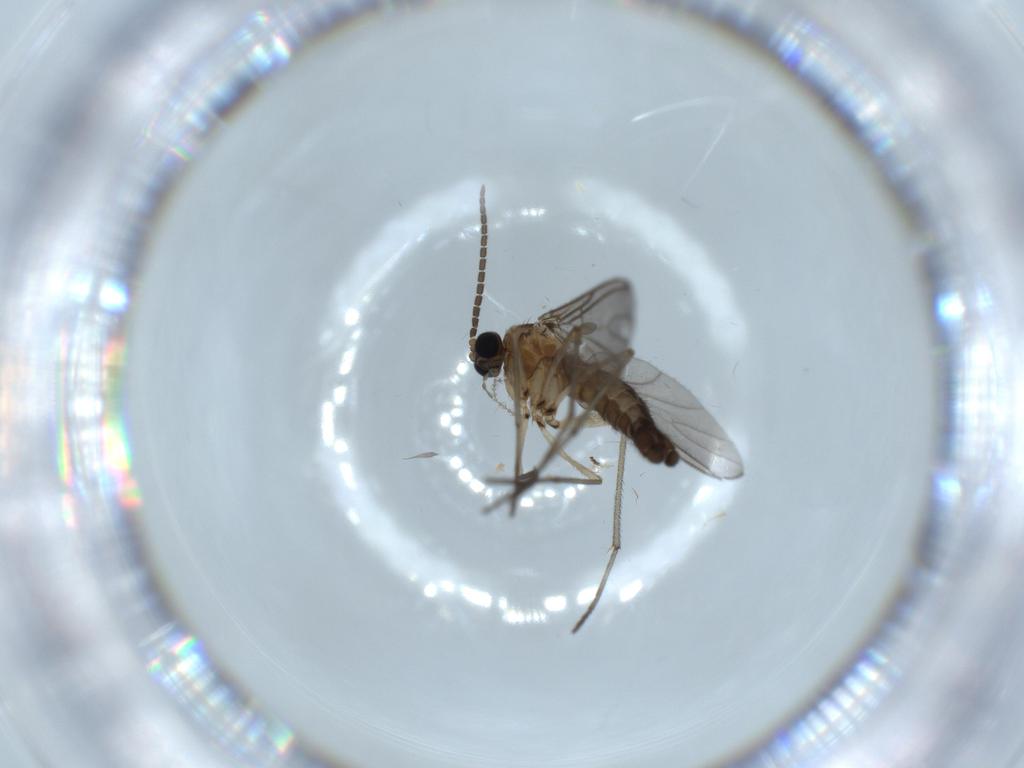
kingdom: Animalia
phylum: Arthropoda
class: Insecta
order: Diptera
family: Sciaridae
